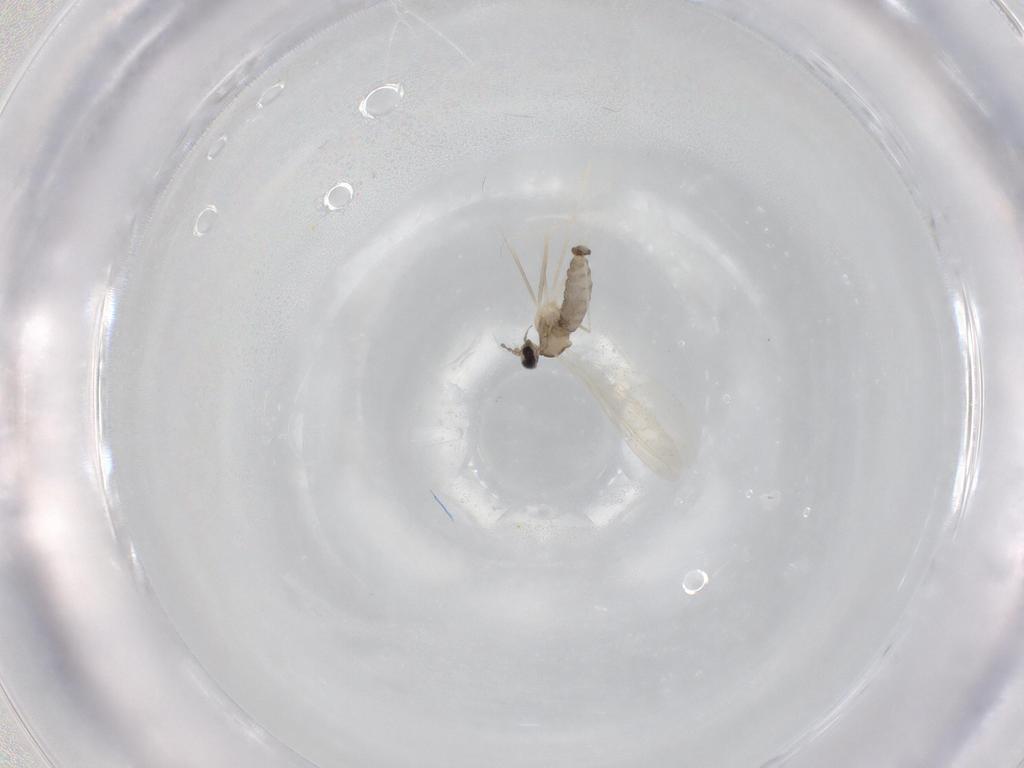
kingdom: Animalia
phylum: Arthropoda
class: Insecta
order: Diptera
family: Cecidomyiidae
